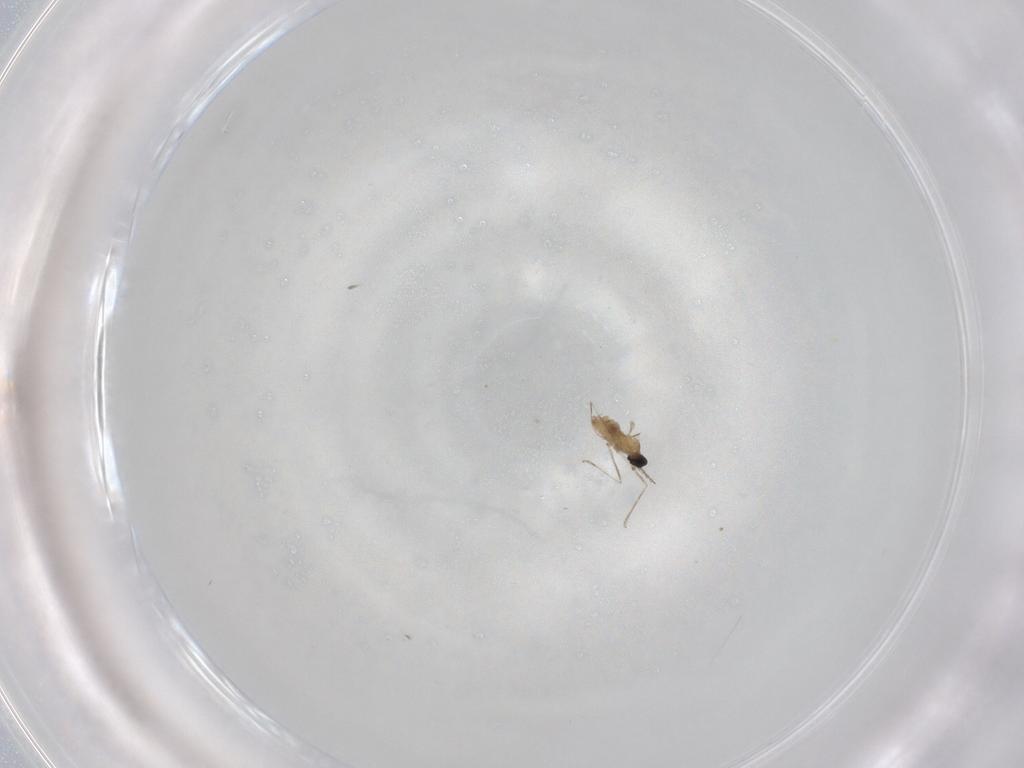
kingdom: Animalia
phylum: Arthropoda
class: Insecta
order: Diptera
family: Cecidomyiidae
